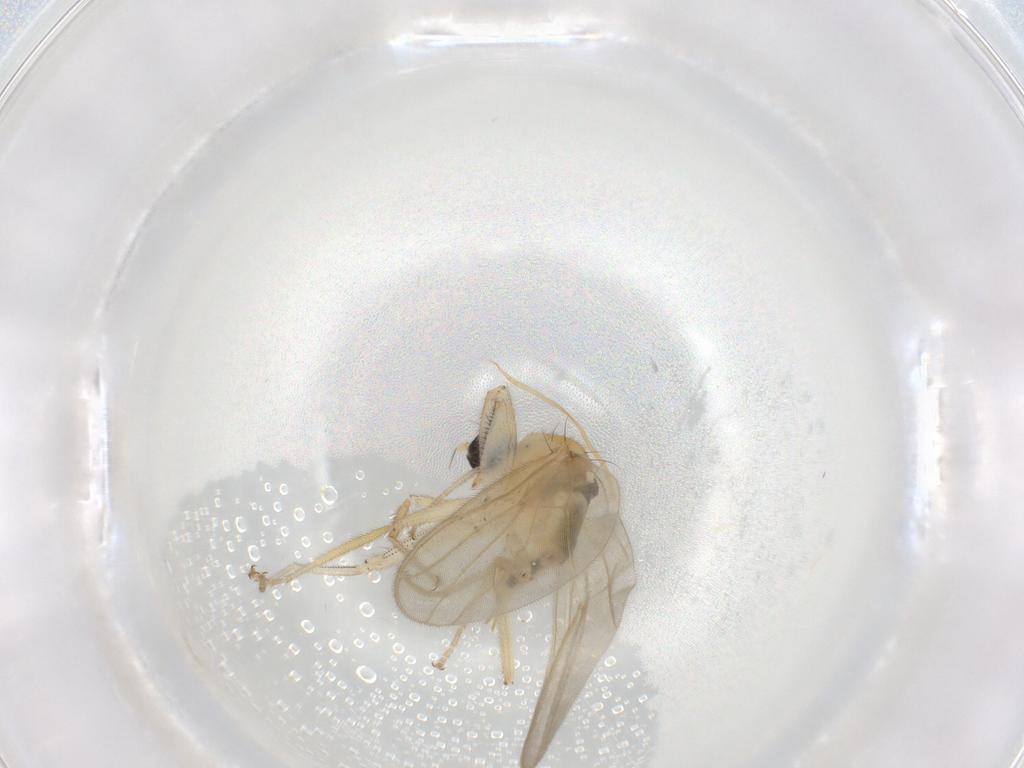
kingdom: Animalia
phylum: Arthropoda
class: Insecta
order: Diptera
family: Hybotidae
